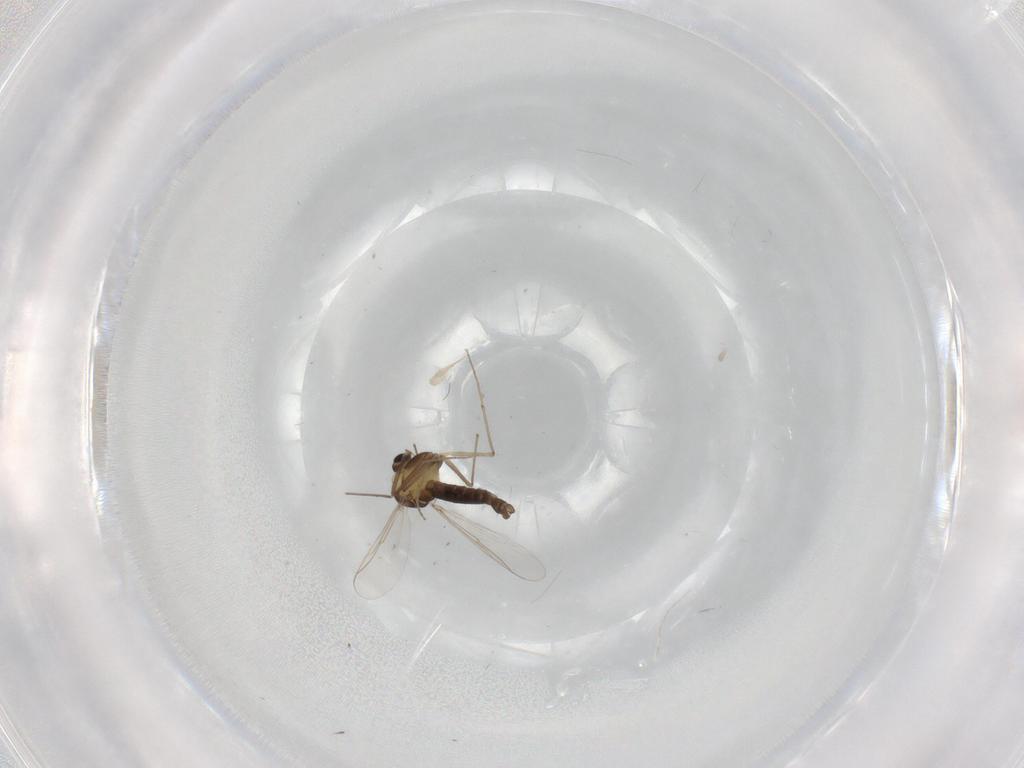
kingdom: Animalia
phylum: Arthropoda
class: Insecta
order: Diptera
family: Chironomidae
